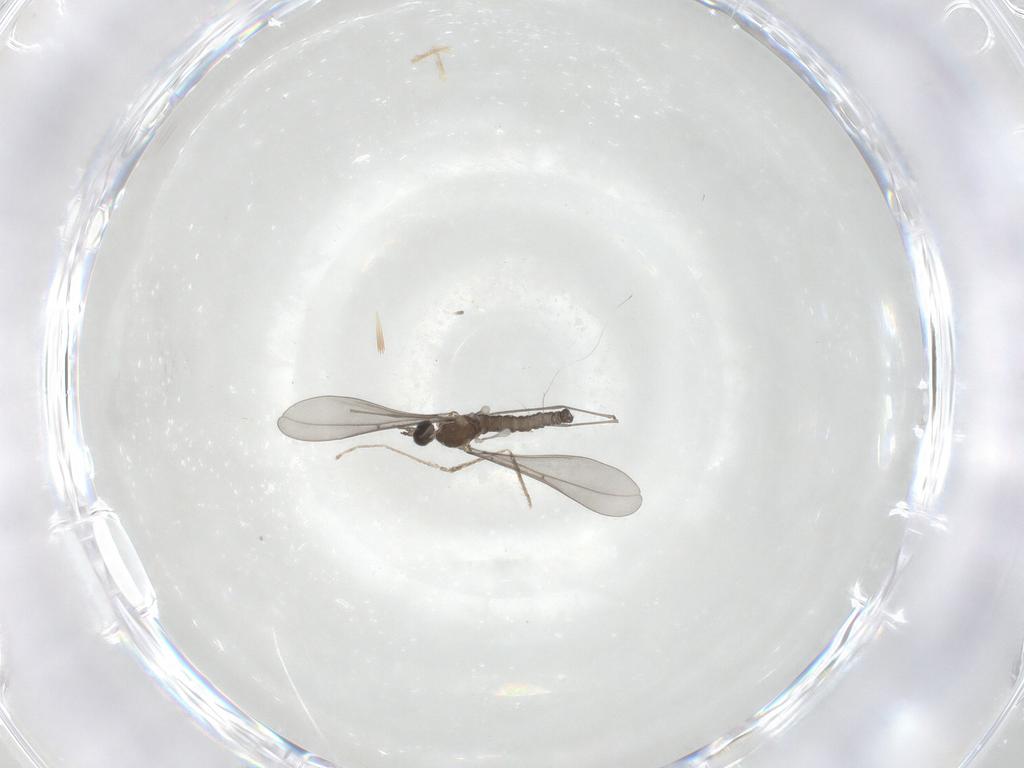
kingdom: Animalia
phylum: Arthropoda
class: Insecta
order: Diptera
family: Cecidomyiidae
